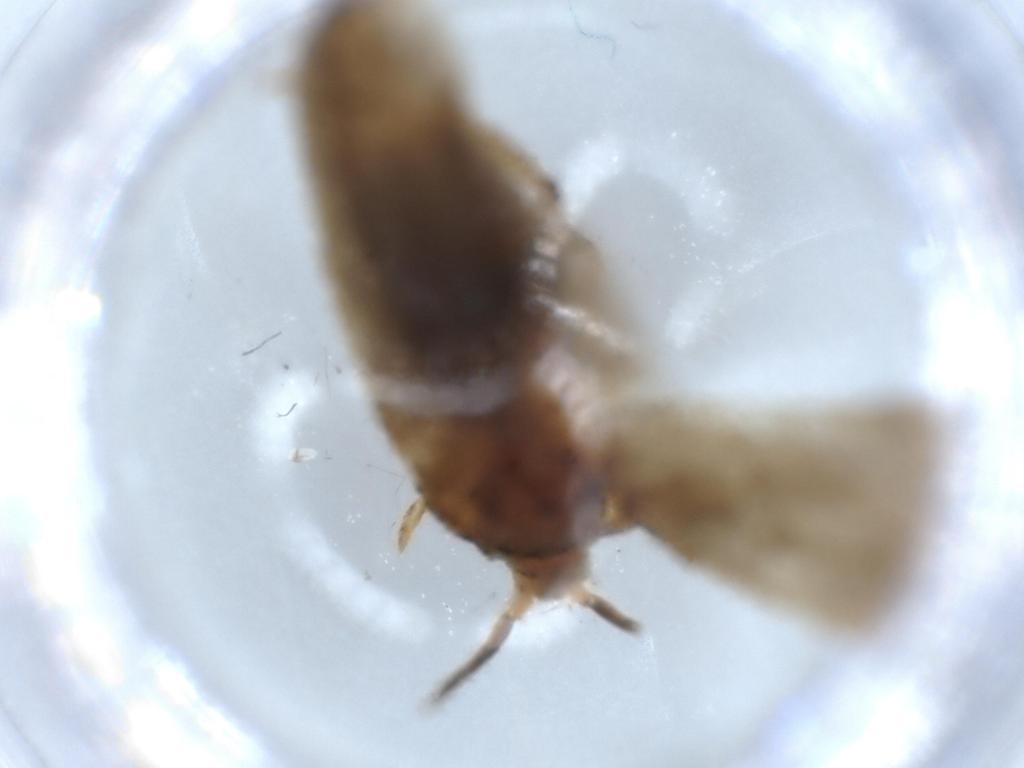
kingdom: Animalia
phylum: Arthropoda
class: Insecta
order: Lepidoptera
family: Blastobasidae
